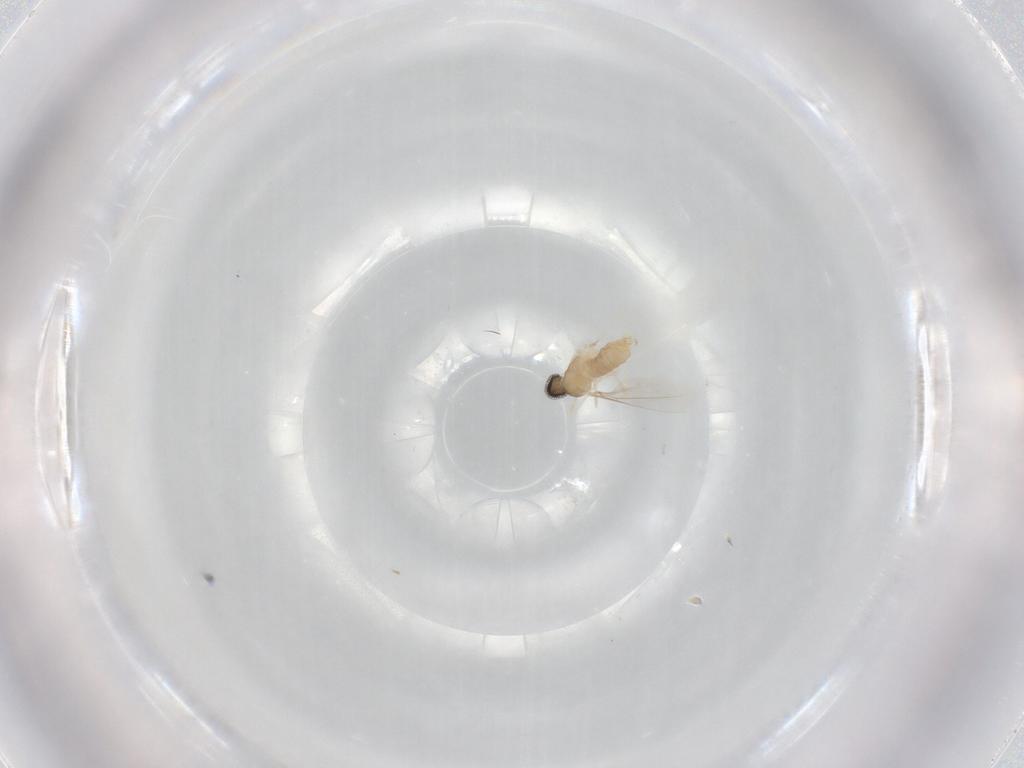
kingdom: Animalia
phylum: Arthropoda
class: Insecta
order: Diptera
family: Cecidomyiidae
